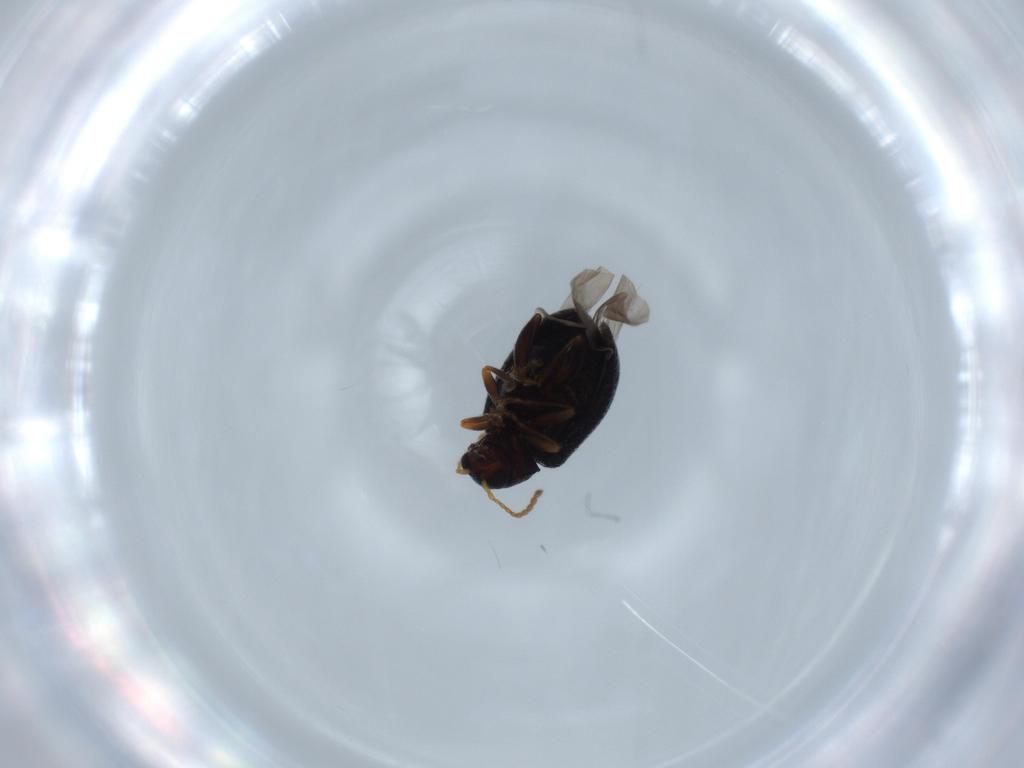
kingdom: Animalia
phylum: Arthropoda
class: Insecta
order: Coleoptera
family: Chrysomelidae
